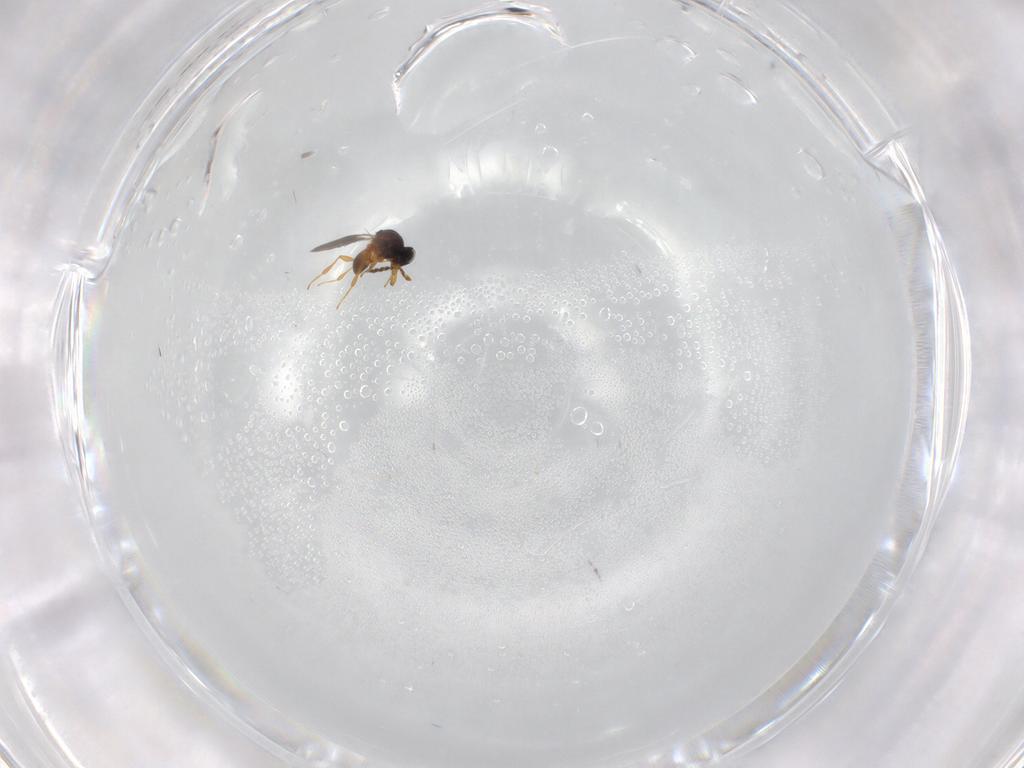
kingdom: Animalia
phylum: Arthropoda
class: Insecta
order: Hymenoptera
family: Platygastridae
